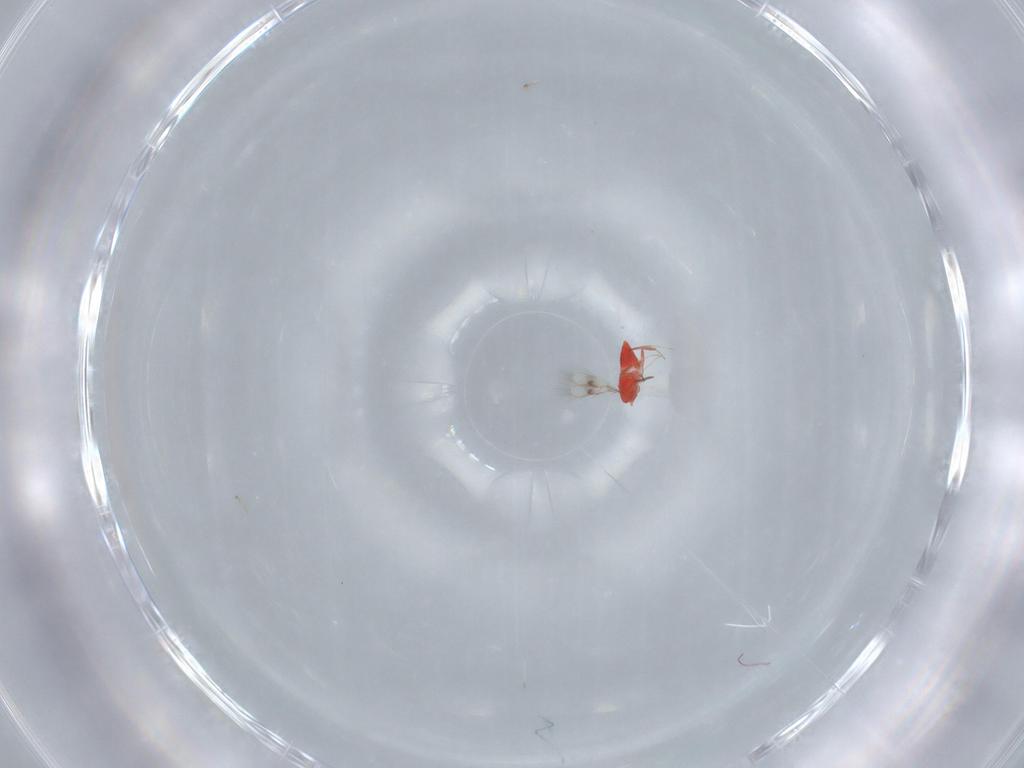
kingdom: Animalia
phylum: Arthropoda
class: Insecta
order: Hymenoptera
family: Trichogrammatidae
